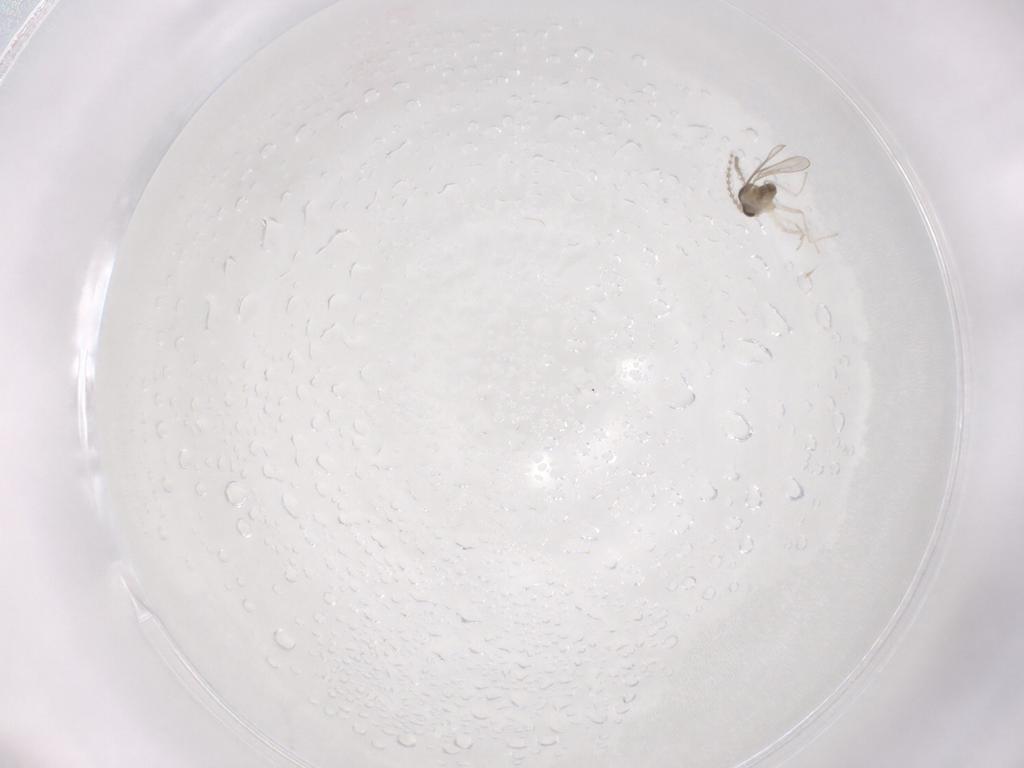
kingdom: Animalia
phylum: Arthropoda
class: Insecta
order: Diptera
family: Cecidomyiidae
